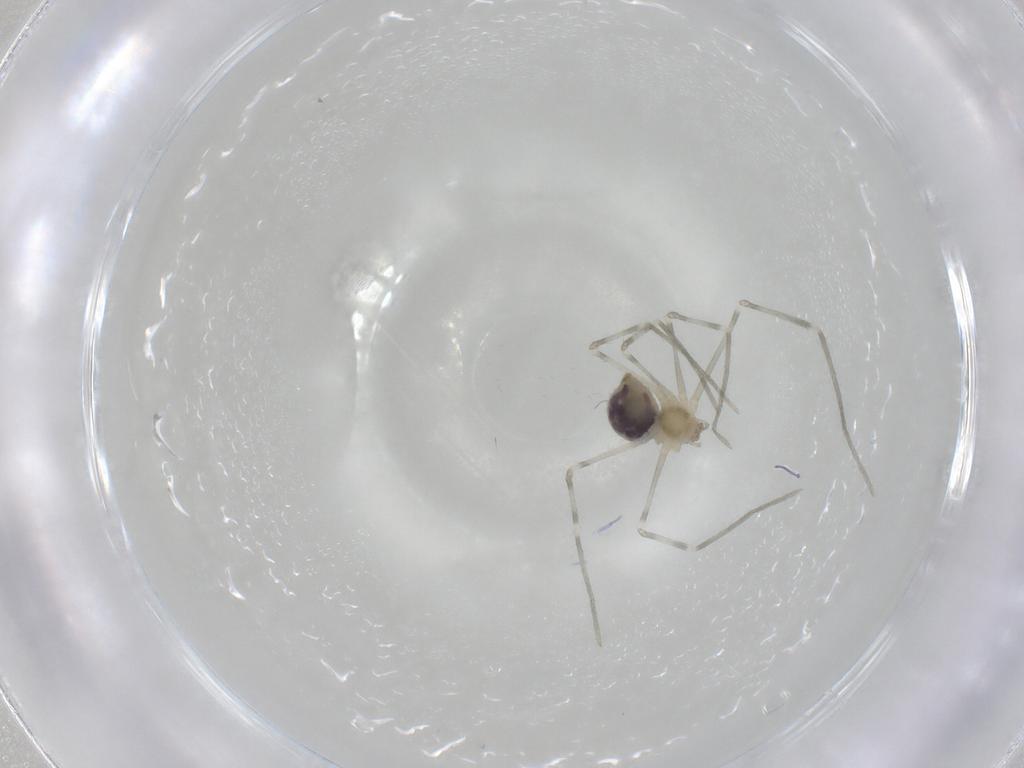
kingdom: Animalia
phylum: Arthropoda
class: Arachnida
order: Araneae
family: Pholcidae
